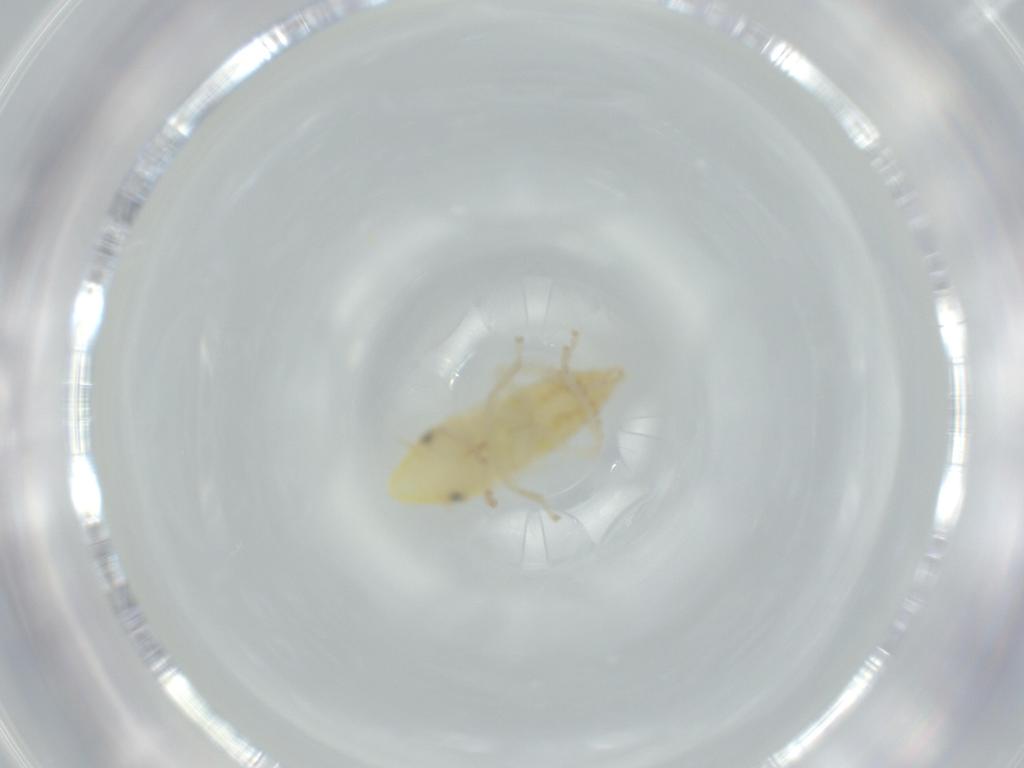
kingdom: Animalia
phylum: Arthropoda
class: Insecta
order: Hemiptera
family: Cicadellidae
